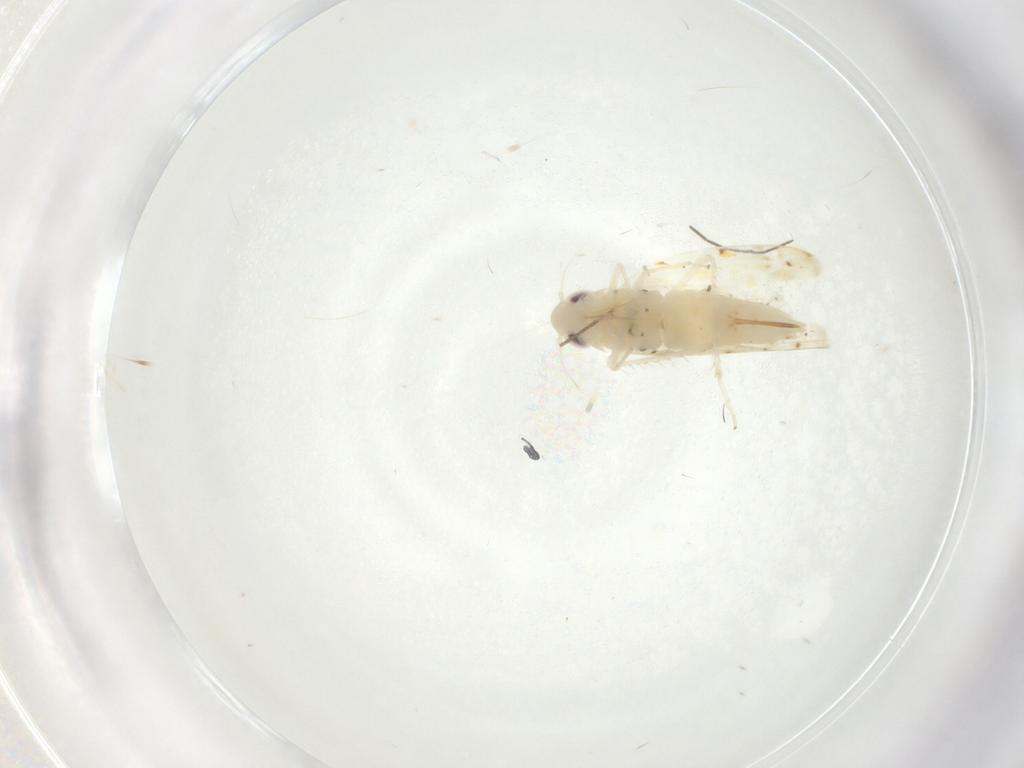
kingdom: Animalia
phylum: Arthropoda
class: Insecta
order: Hemiptera
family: Cicadellidae
